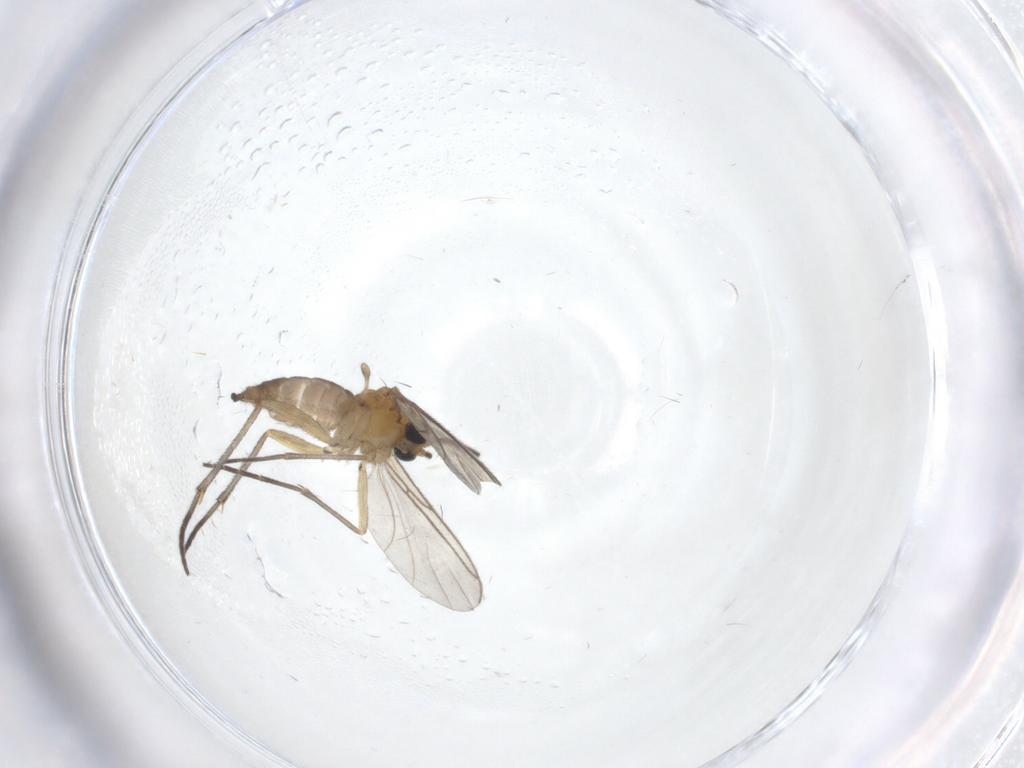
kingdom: Animalia
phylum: Arthropoda
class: Insecta
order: Diptera
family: Sciaridae
